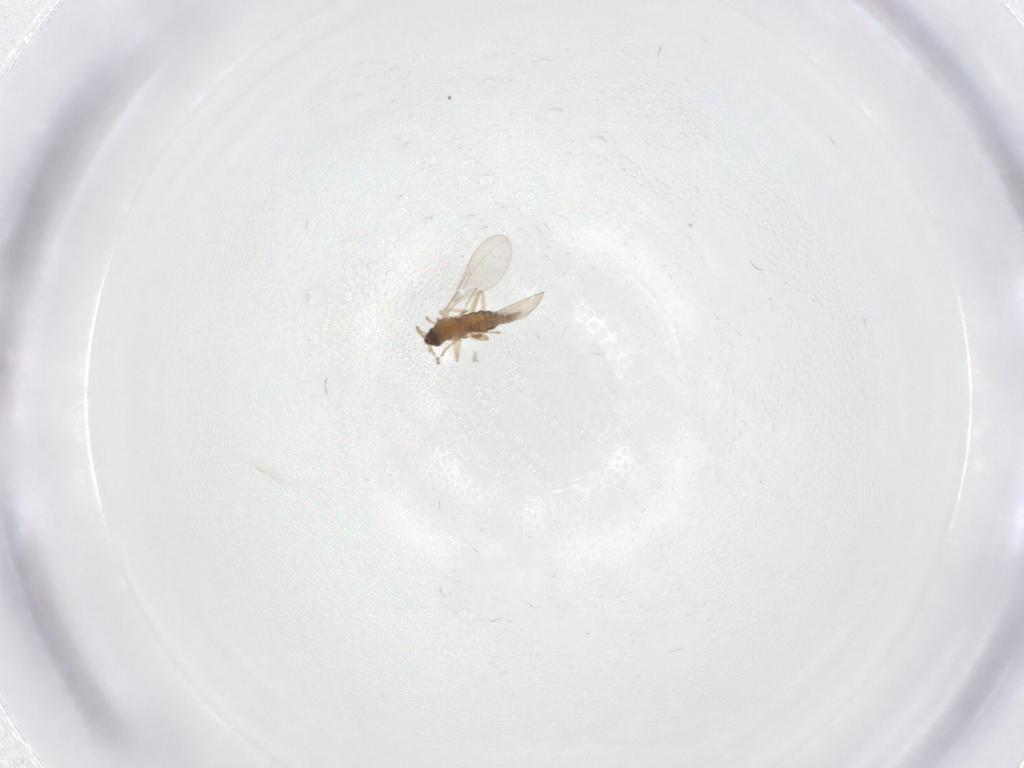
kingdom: Animalia
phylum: Arthropoda
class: Insecta
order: Diptera
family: Cecidomyiidae
